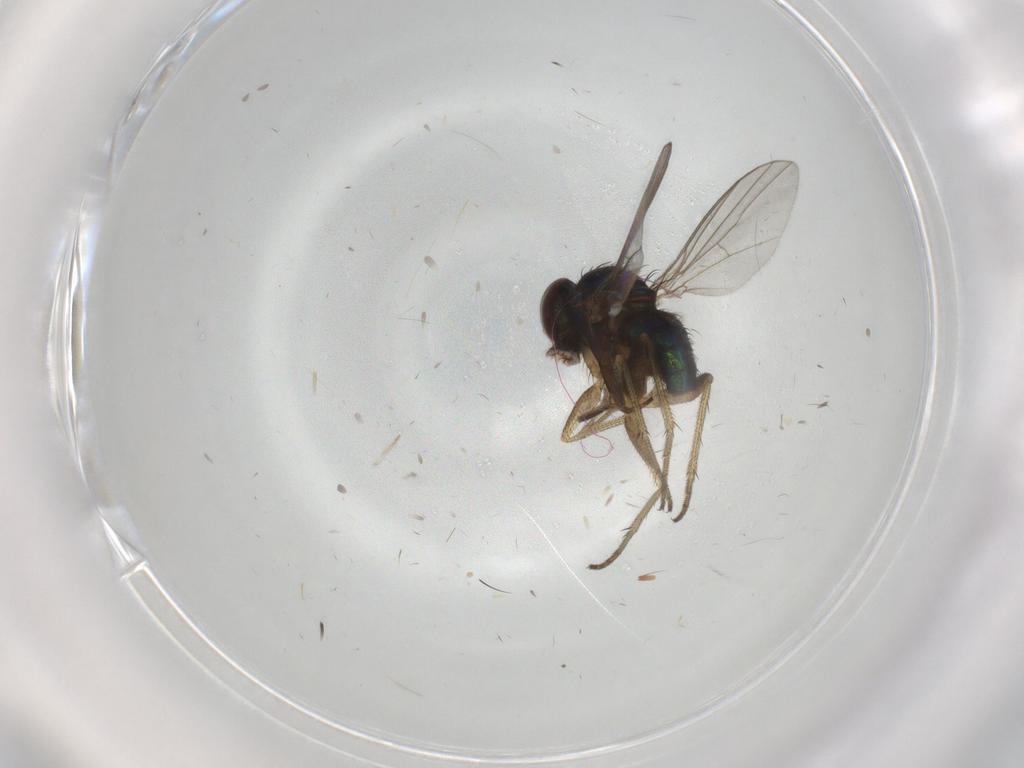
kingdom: Animalia
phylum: Arthropoda
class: Insecta
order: Diptera
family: Chironomidae
